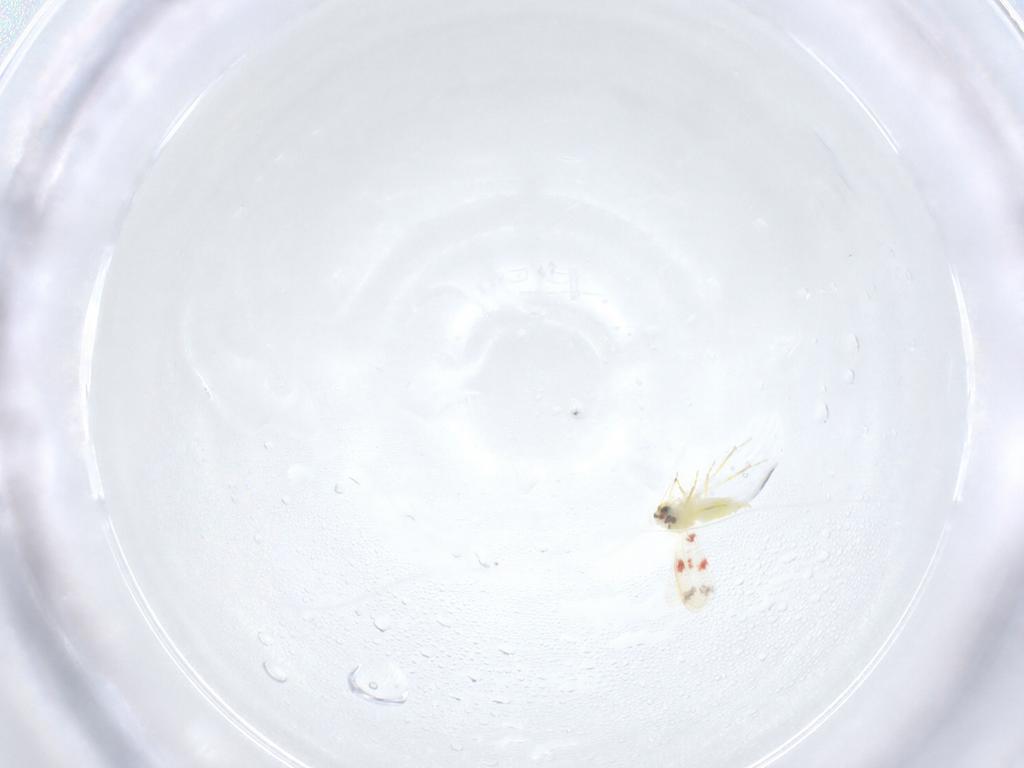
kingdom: Animalia
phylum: Arthropoda
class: Insecta
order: Hemiptera
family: Aleyrodidae
